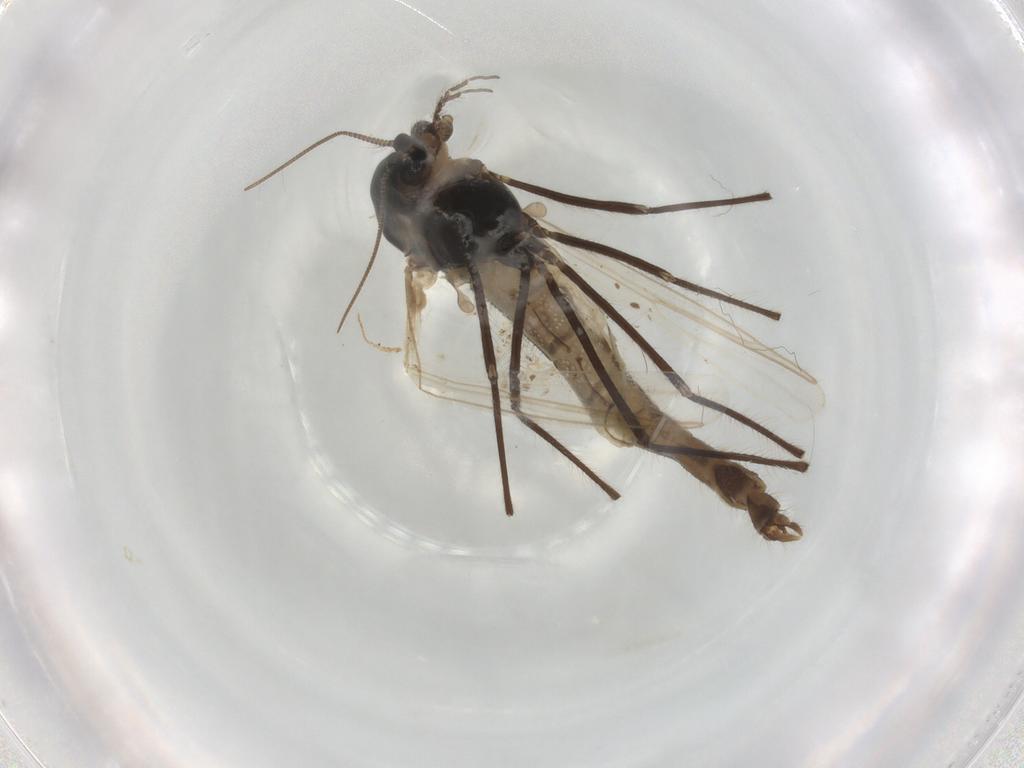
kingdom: Animalia
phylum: Arthropoda
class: Insecta
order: Diptera
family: Chironomidae
